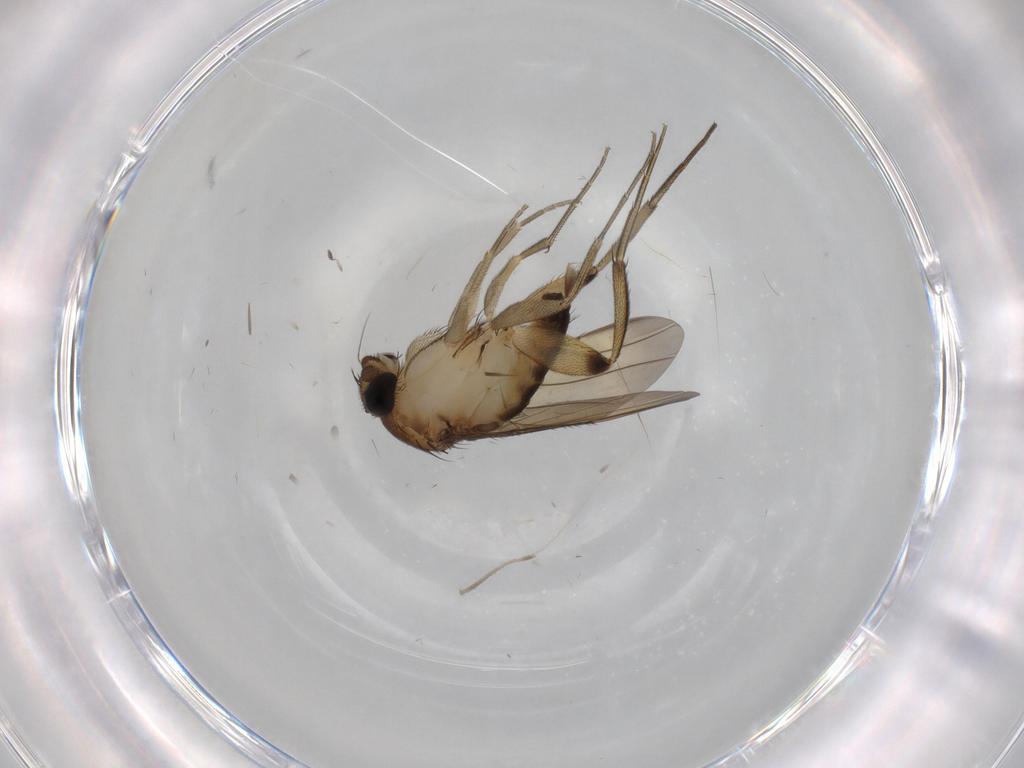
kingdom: Animalia
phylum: Arthropoda
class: Insecta
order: Diptera
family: Phoridae
